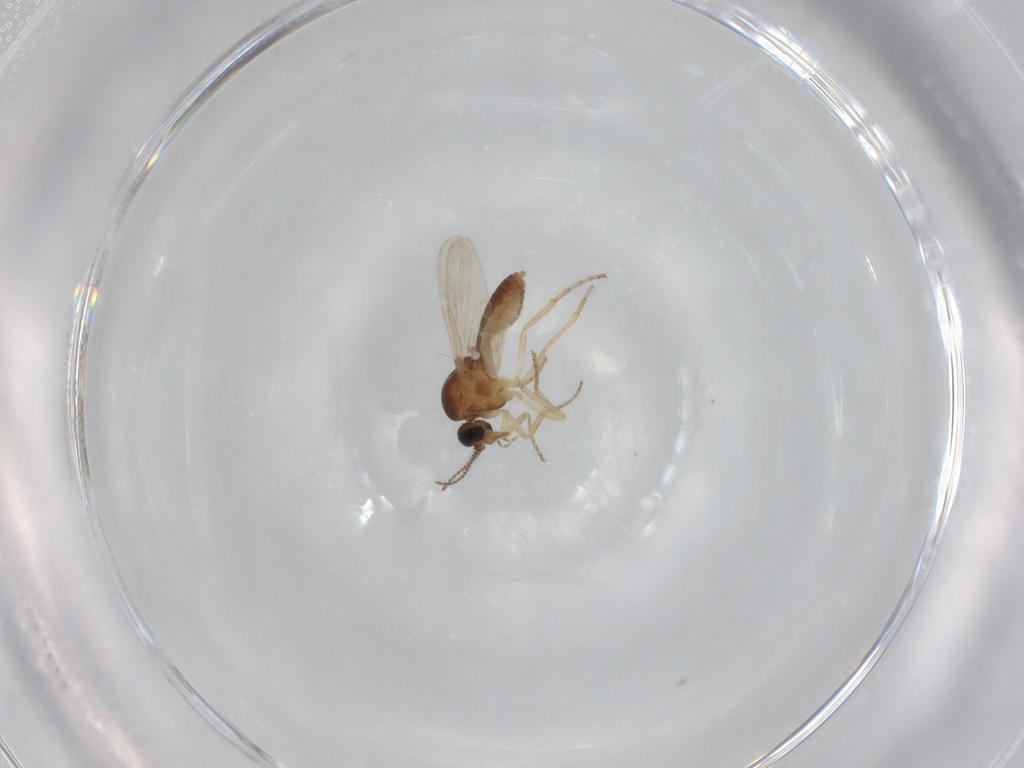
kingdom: Animalia
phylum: Arthropoda
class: Insecta
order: Diptera
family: Ceratopogonidae
